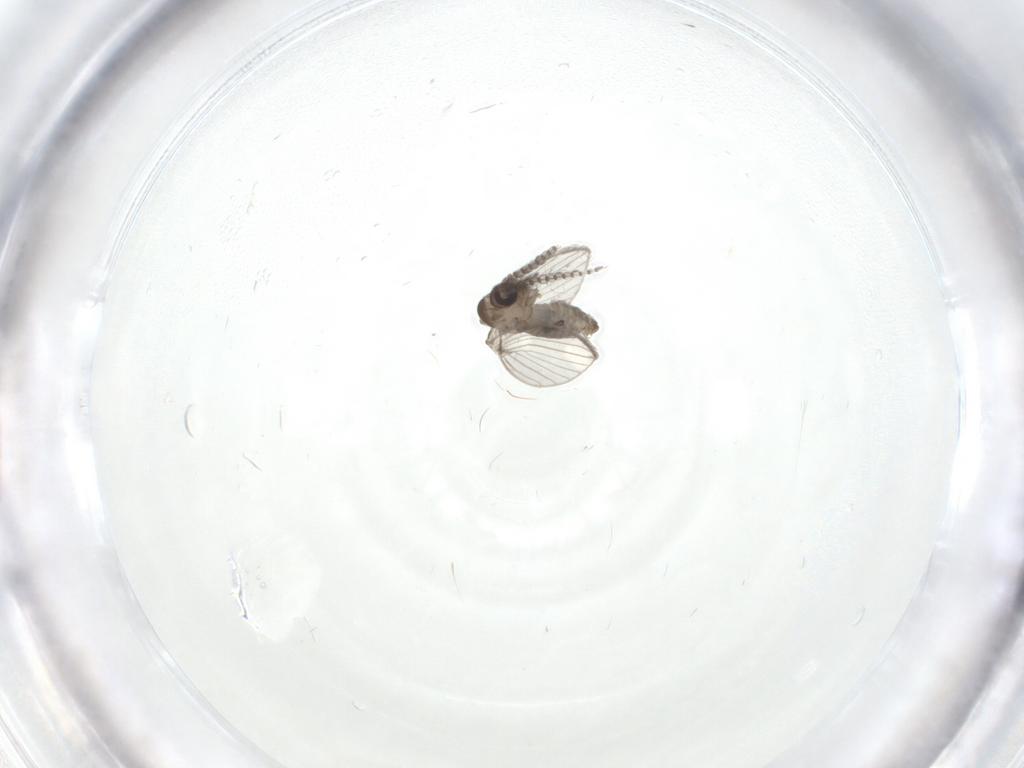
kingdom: Animalia
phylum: Arthropoda
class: Insecta
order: Diptera
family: Psychodidae
